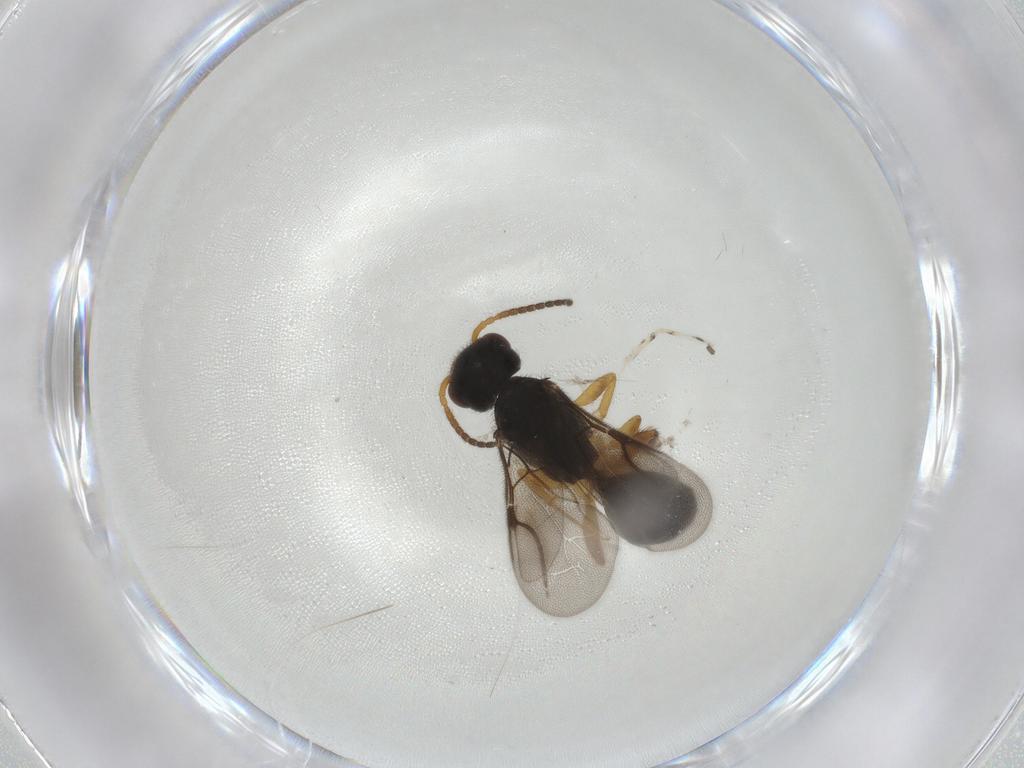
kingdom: Animalia
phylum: Arthropoda
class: Insecta
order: Hymenoptera
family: Bethylidae
